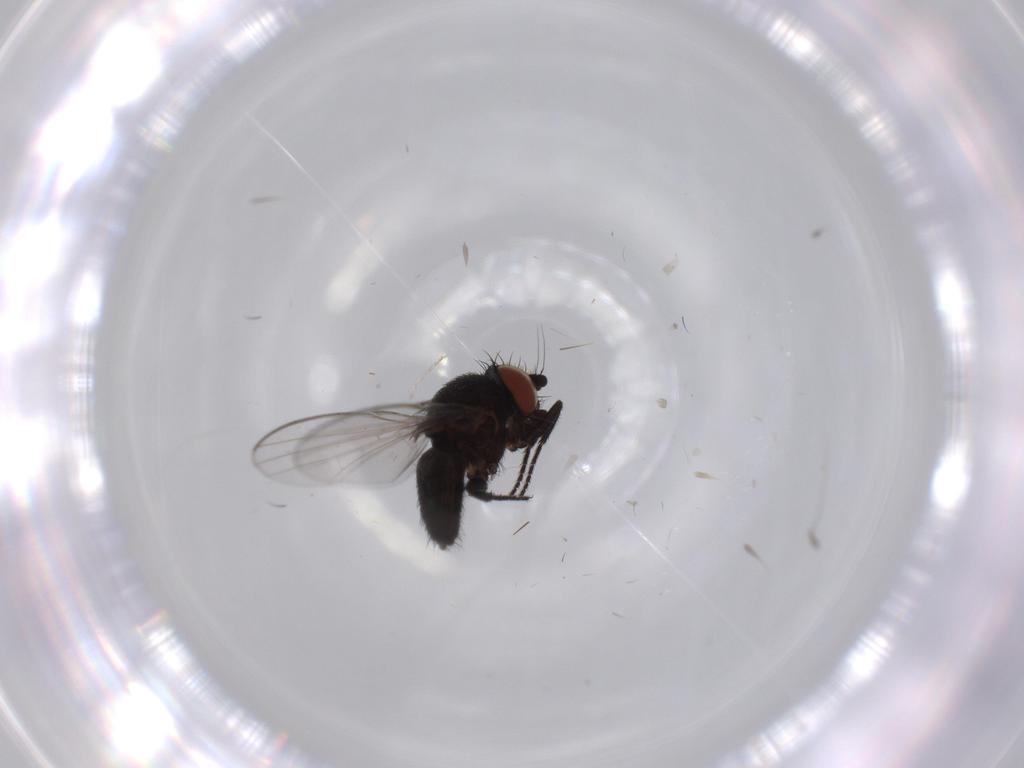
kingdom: Animalia
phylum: Arthropoda
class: Insecta
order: Diptera
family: Milichiidae
